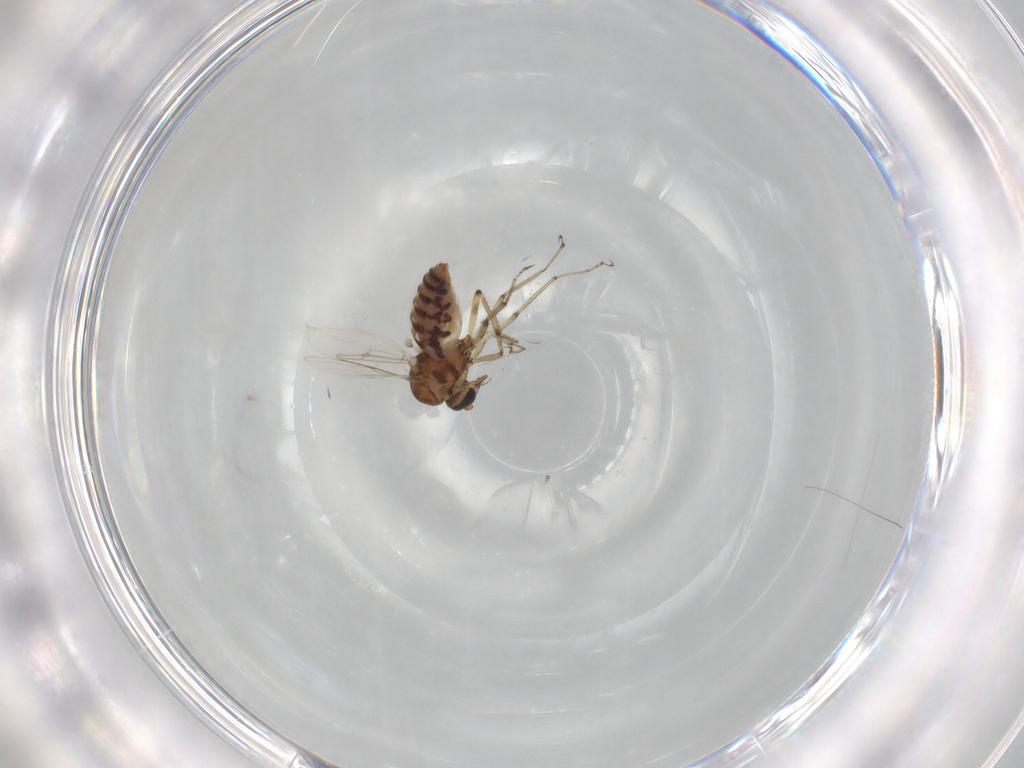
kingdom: Animalia
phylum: Arthropoda
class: Insecta
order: Diptera
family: Ceratopogonidae
